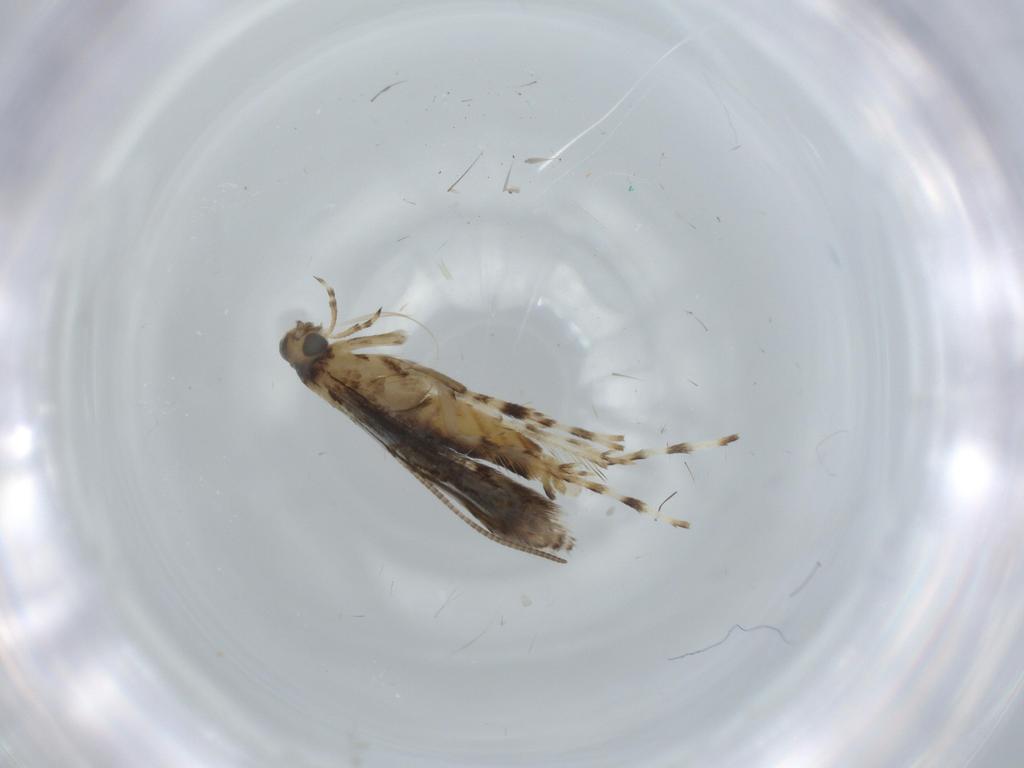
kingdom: Animalia
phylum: Arthropoda
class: Insecta
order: Lepidoptera
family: Gracillariidae
